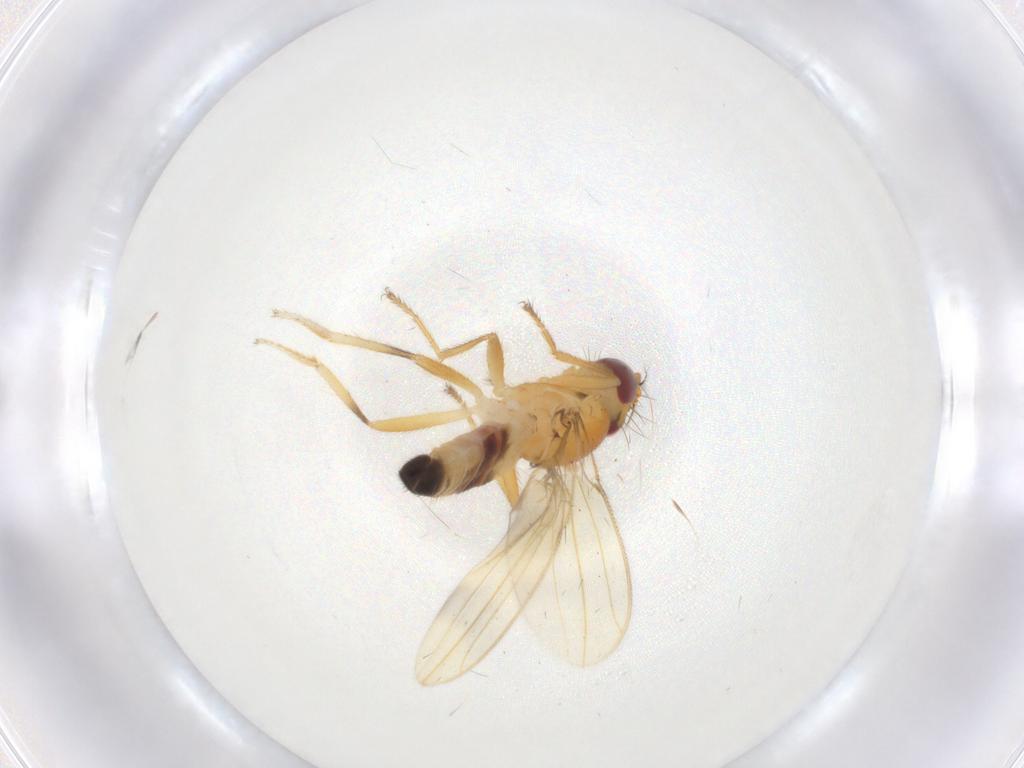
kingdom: Animalia
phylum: Arthropoda
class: Insecta
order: Diptera
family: Periscelididae
